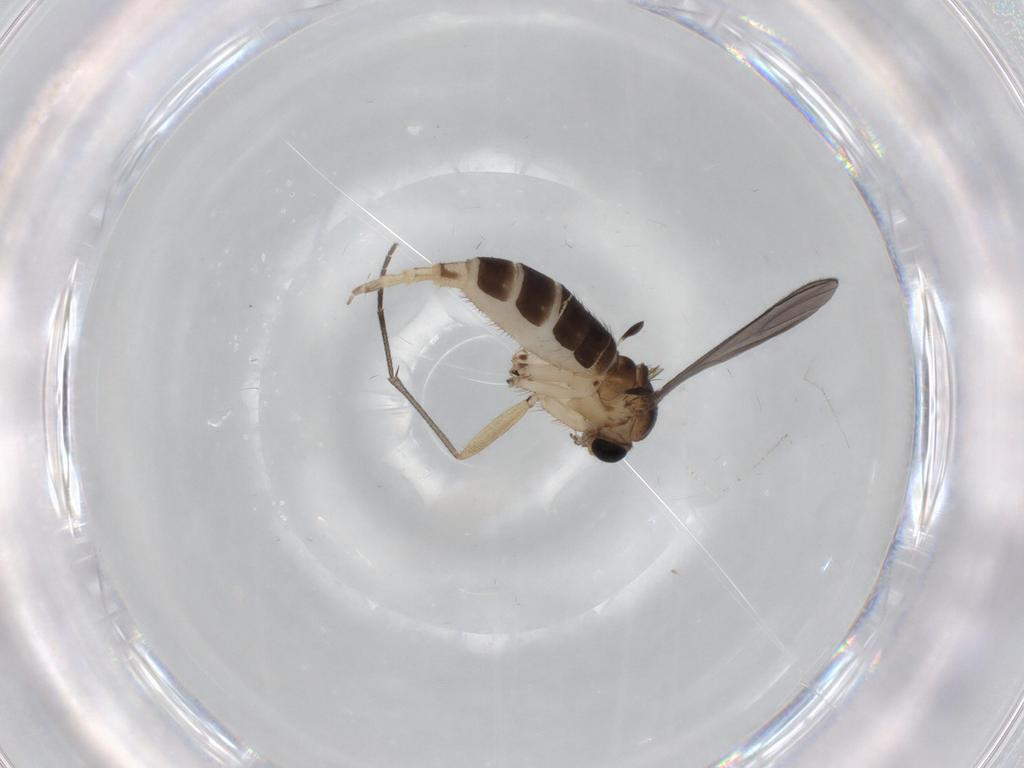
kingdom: Animalia
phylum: Arthropoda
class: Insecta
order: Diptera
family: Sciaridae
